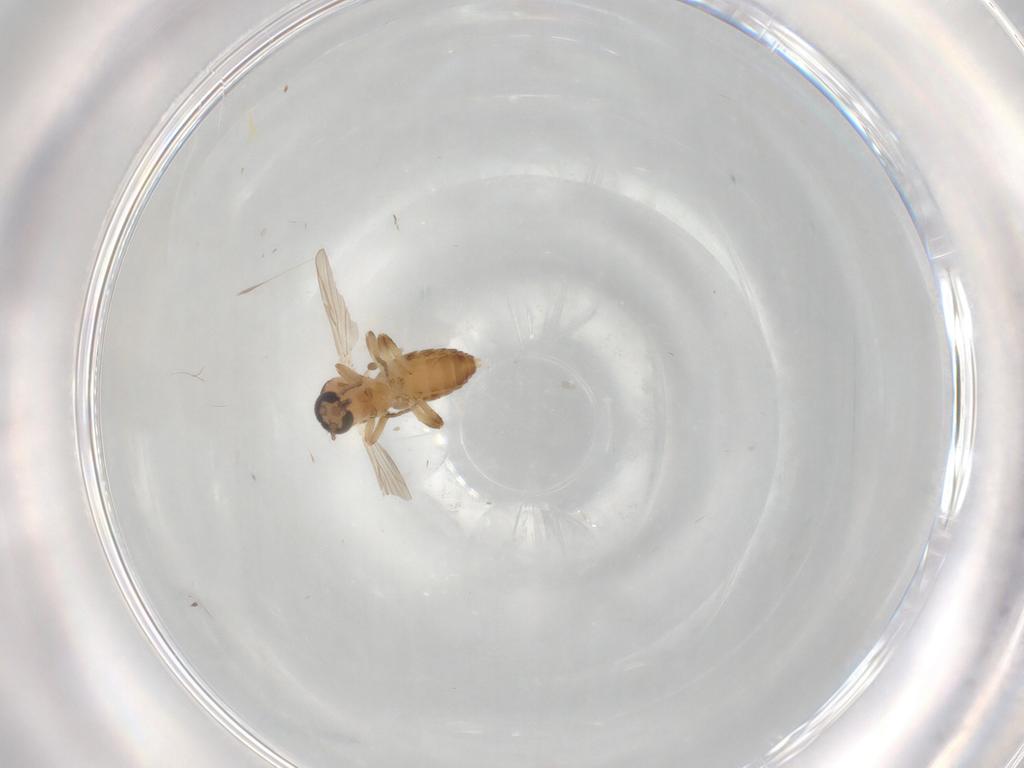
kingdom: Animalia
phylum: Arthropoda
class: Insecta
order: Diptera
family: Ceratopogonidae
